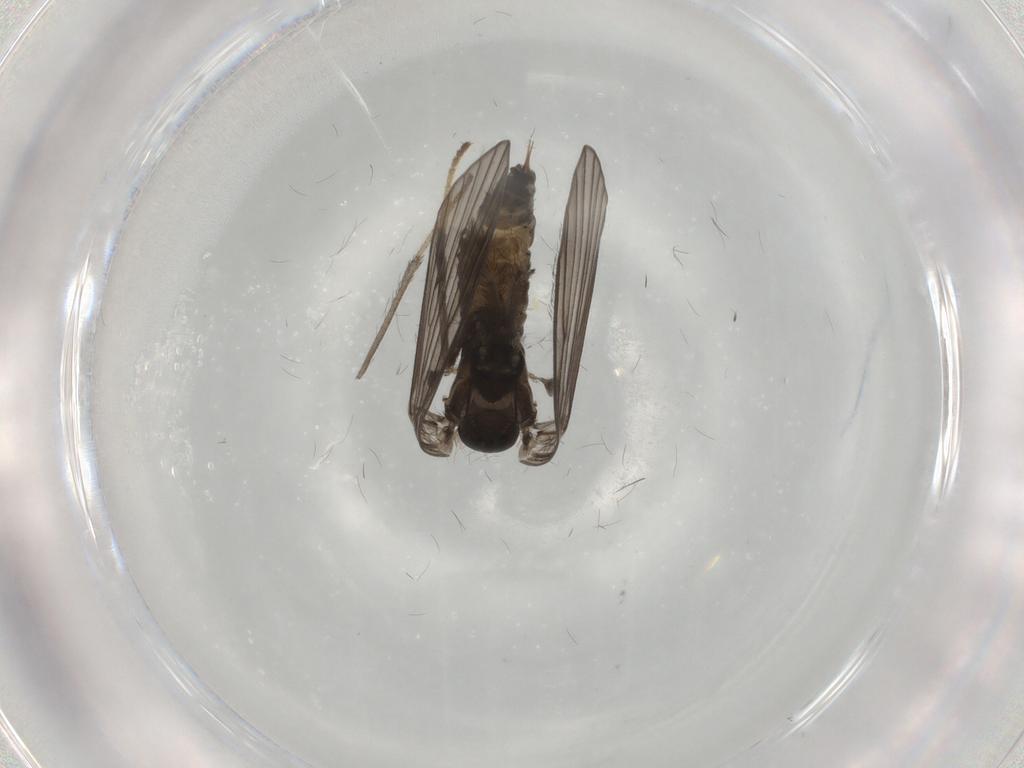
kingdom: Animalia
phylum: Arthropoda
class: Insecta
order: Diptera
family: Psychodidae
